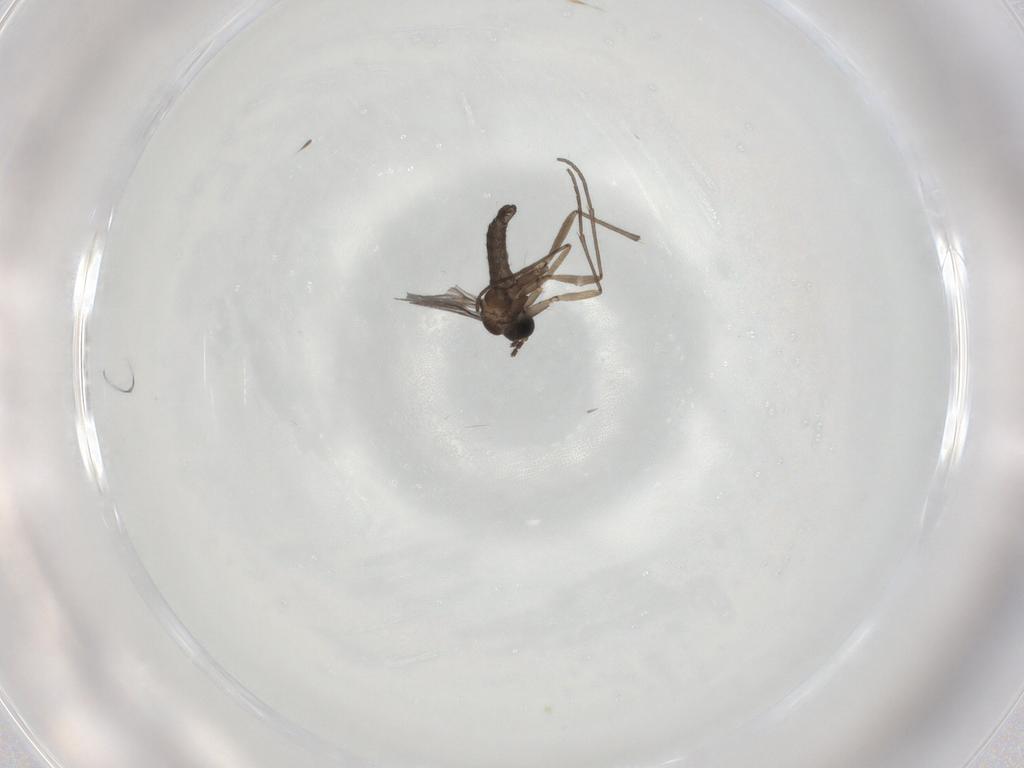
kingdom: Animalia
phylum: Arthropoda
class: Insecta
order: Diptera
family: Sciaridae
